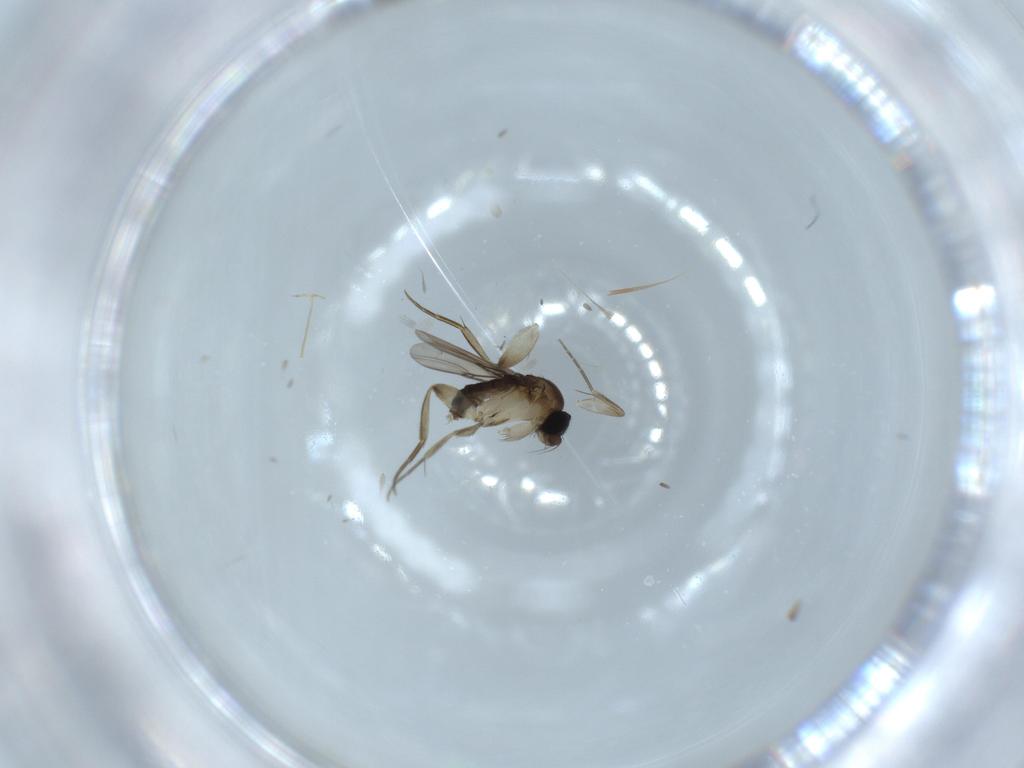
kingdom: Animalia
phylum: Arthropoda
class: Insecta
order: Diptera
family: Phoridae
